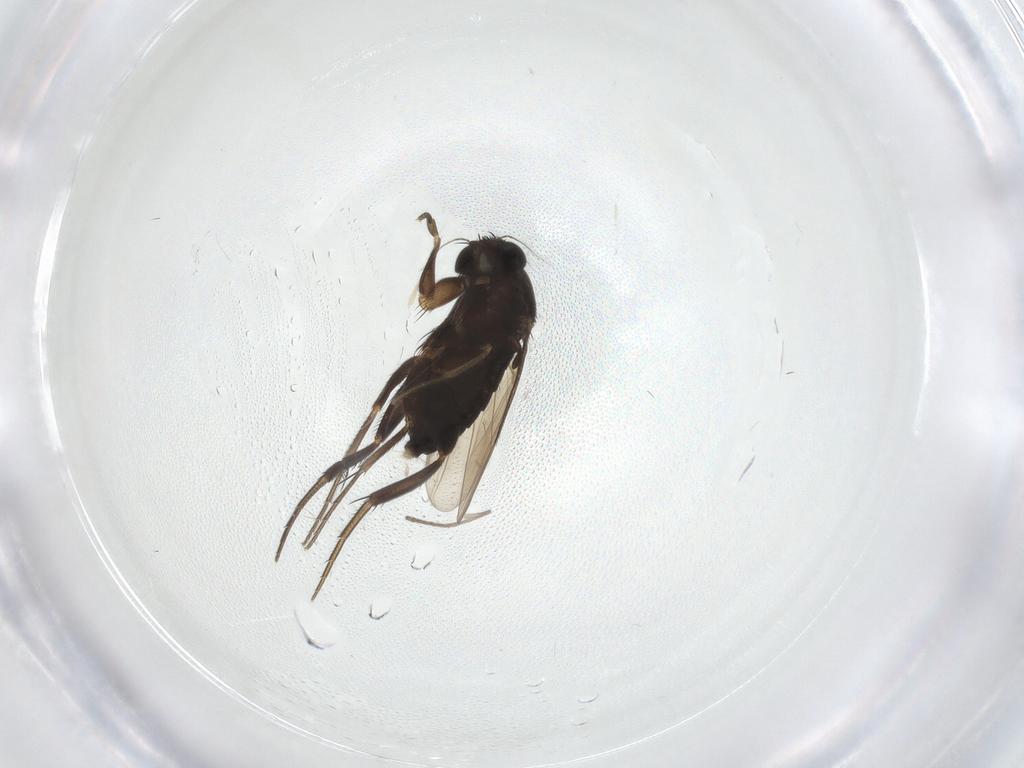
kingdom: Animalia
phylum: Arthropoda
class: Insecta
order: Diptera
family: Phoridae
